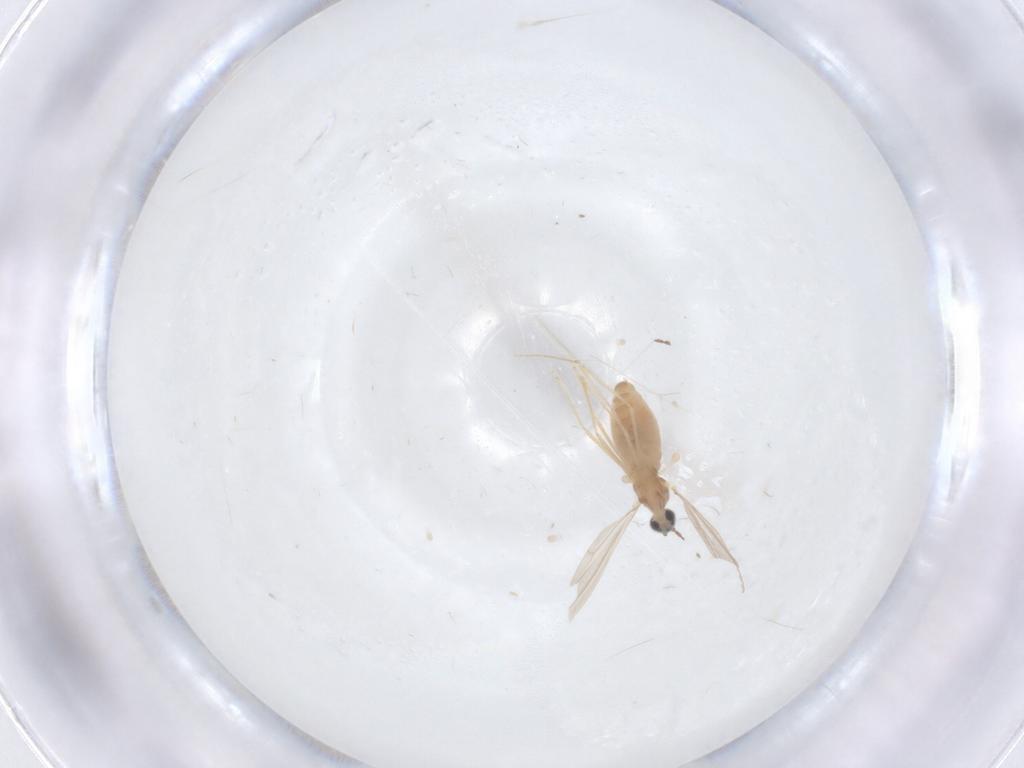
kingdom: Animalia
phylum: Arthropoda
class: Insecta
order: Diptera
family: Cecidomyiidae
